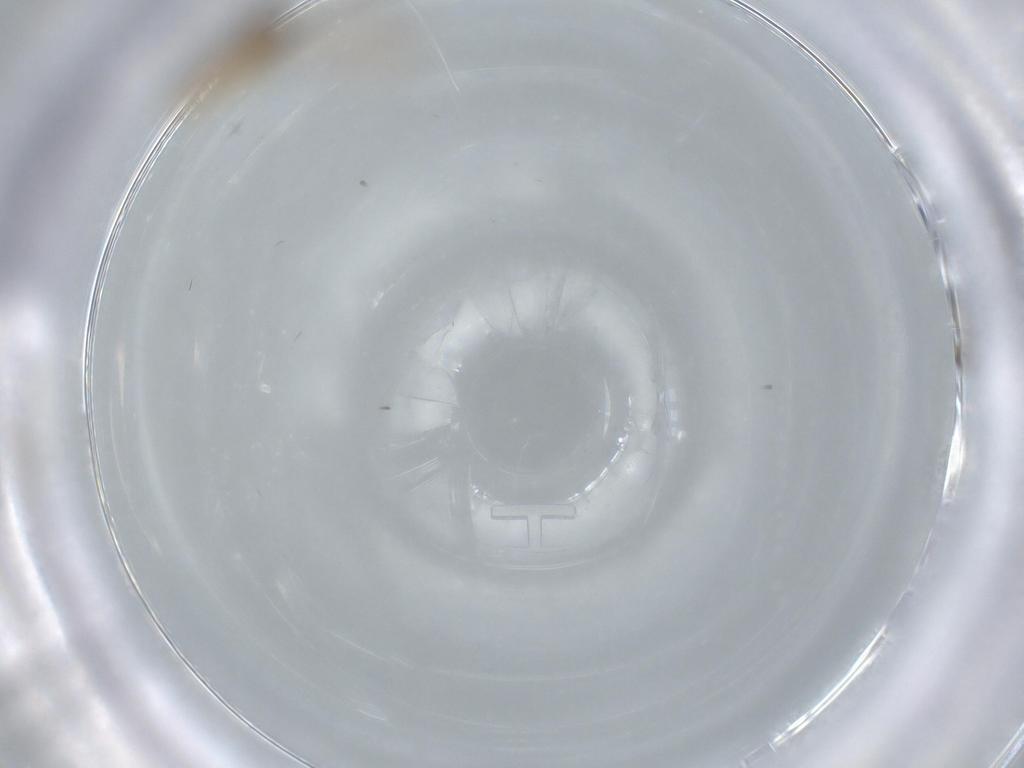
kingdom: Animalia
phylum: Arthropoda
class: Insecta
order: Diptera
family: Cecidomyiidae
